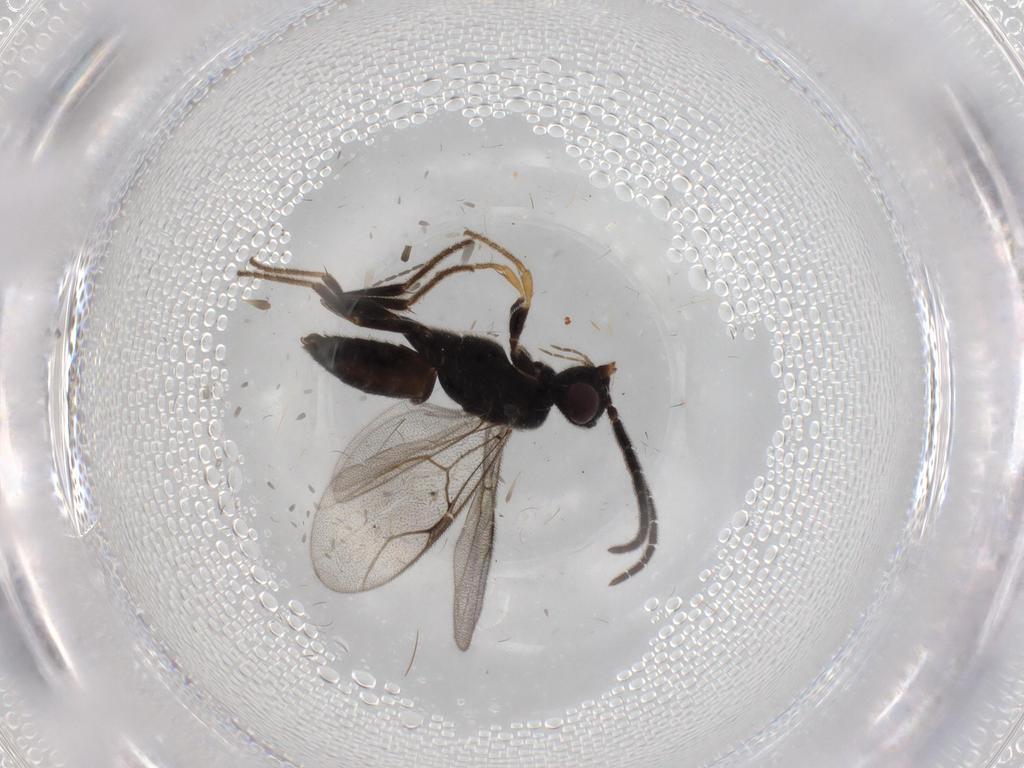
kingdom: Animalia
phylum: Arthropoda
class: Insecta
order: Hymenoptera
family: Dryinidae
